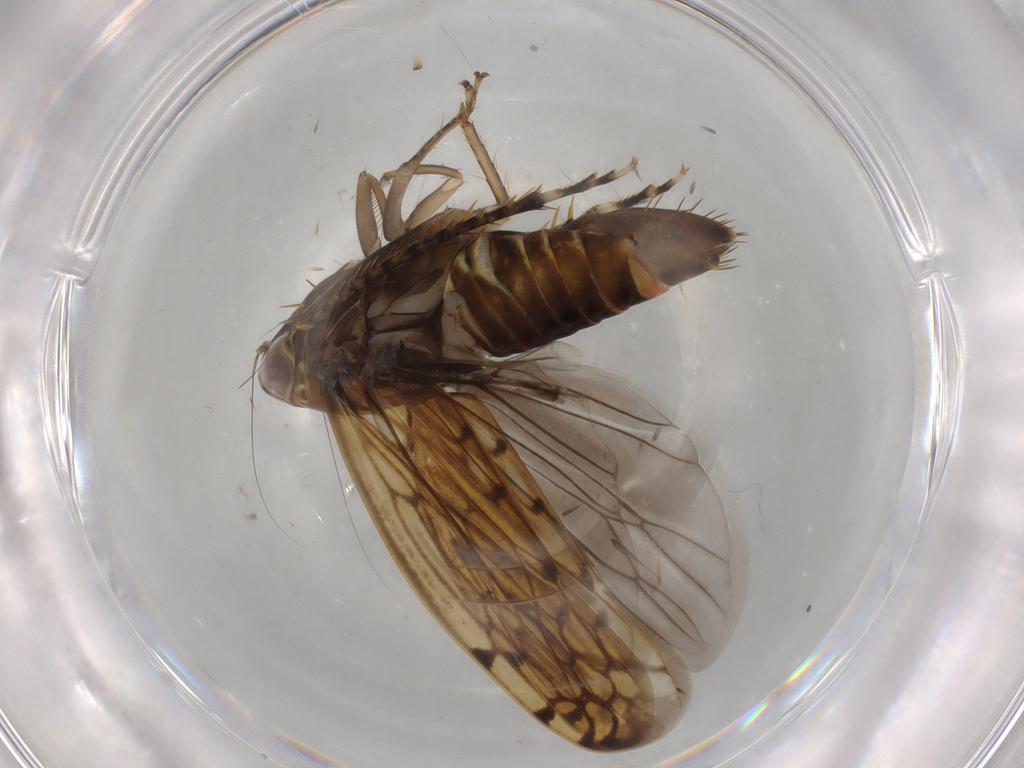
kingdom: Animalia
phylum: Arthropoda
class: Insecta
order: Hemiptera
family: Cicadellidae
